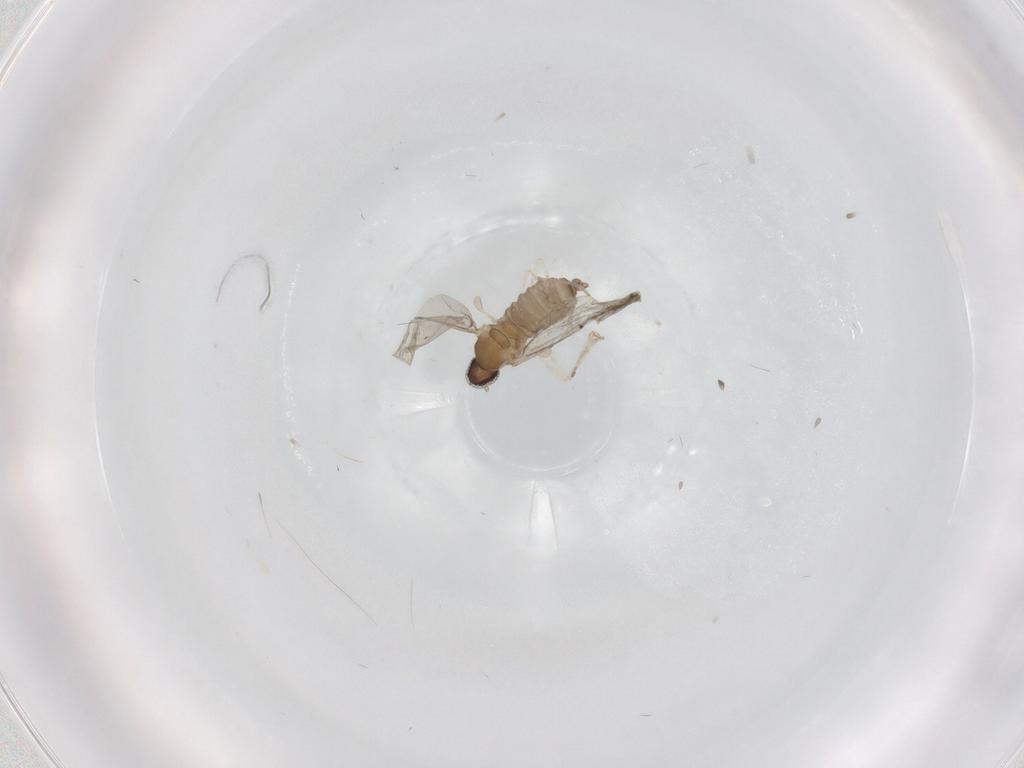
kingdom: Animalia
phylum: Arthropoda
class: Insecta
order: Diptera
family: Cecidomyiidae
